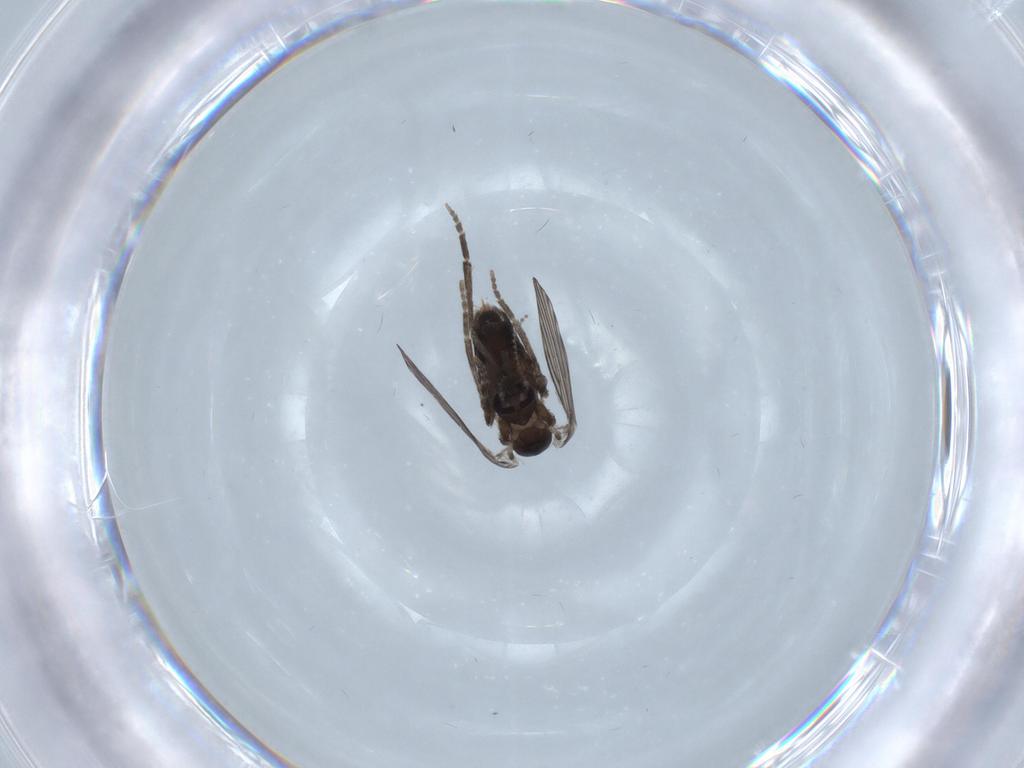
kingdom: Animalia
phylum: Arthropoda
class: Insecta
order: Diptera
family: Psychodidae
